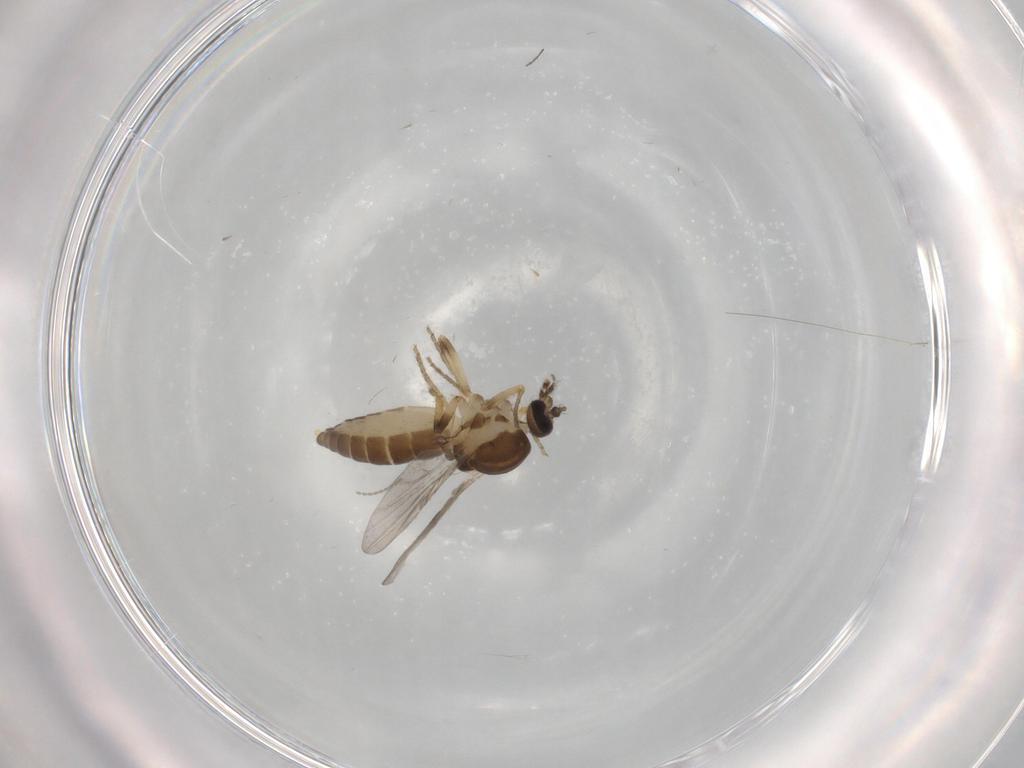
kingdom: Animalia
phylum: Arthropoda
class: Insecta
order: Diptera
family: Ceratopogonidae
